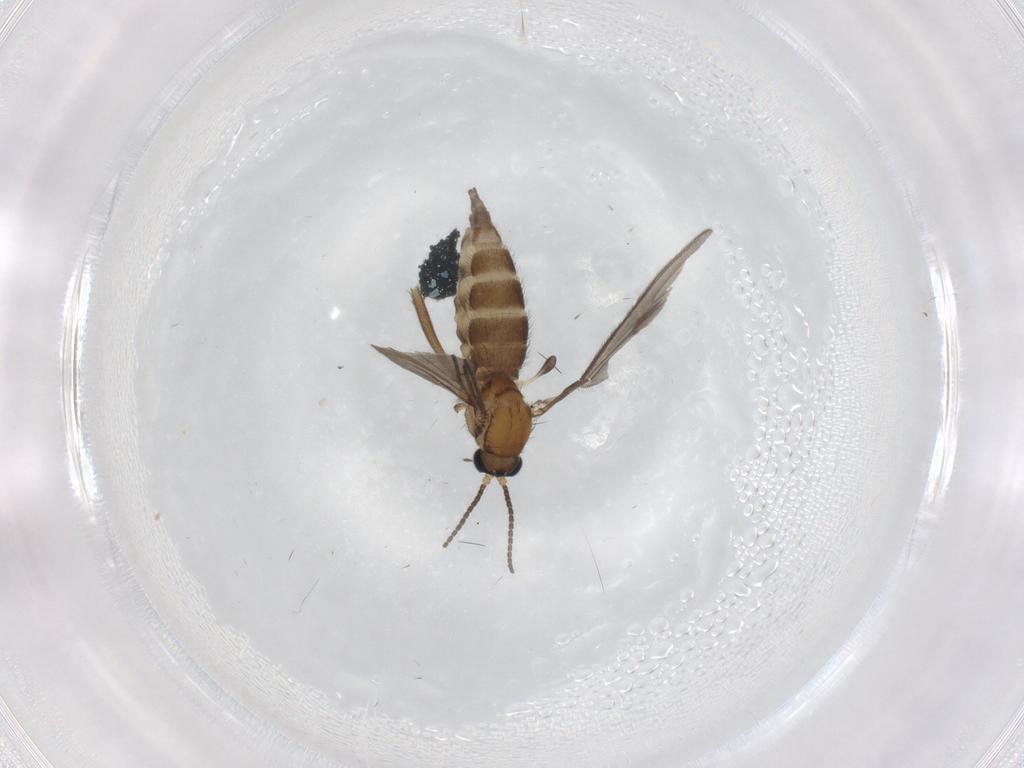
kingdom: Animalia
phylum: Arthropoda
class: Insecta
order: Diptera
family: Sciaridae
